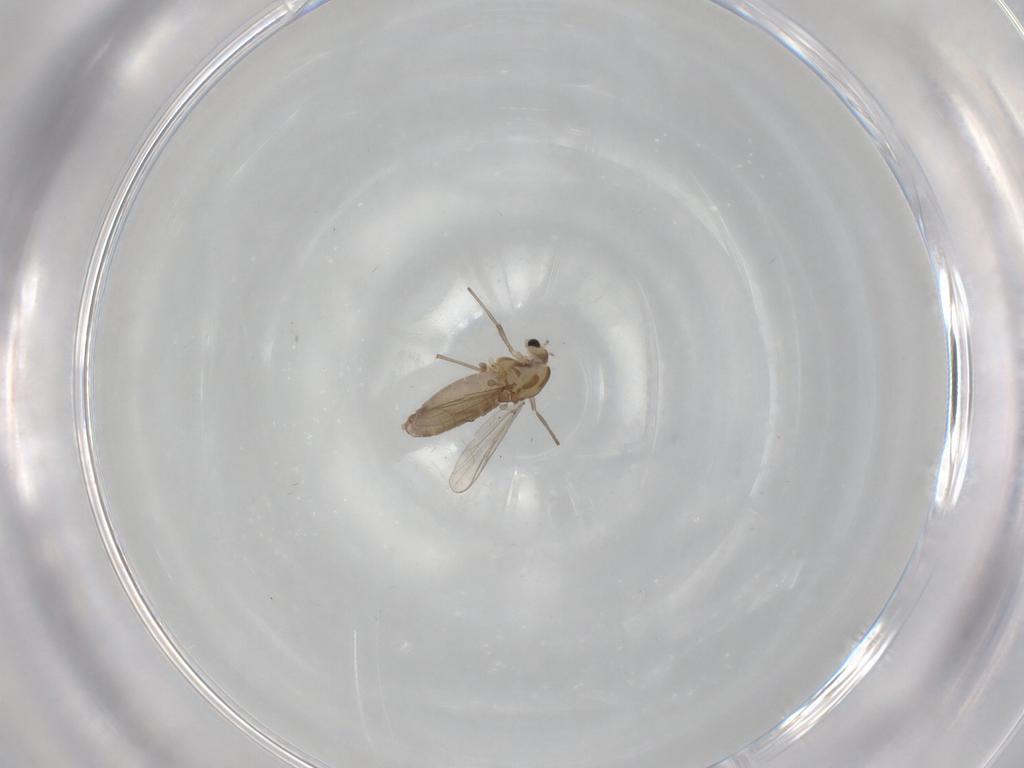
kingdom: Animalia
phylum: Arthropoda
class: Insecta
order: Diptera
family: Chironomidae
